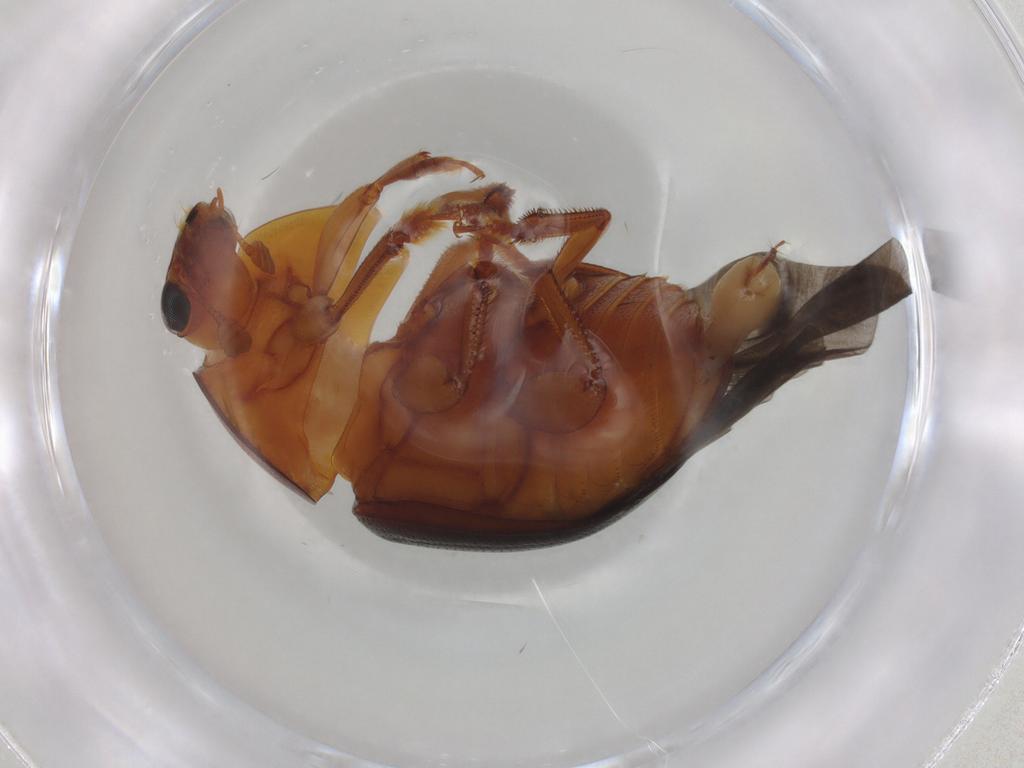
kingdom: Animalia
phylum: Arthropoda
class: Insecta
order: Coleoptera
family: Nitidulidae
